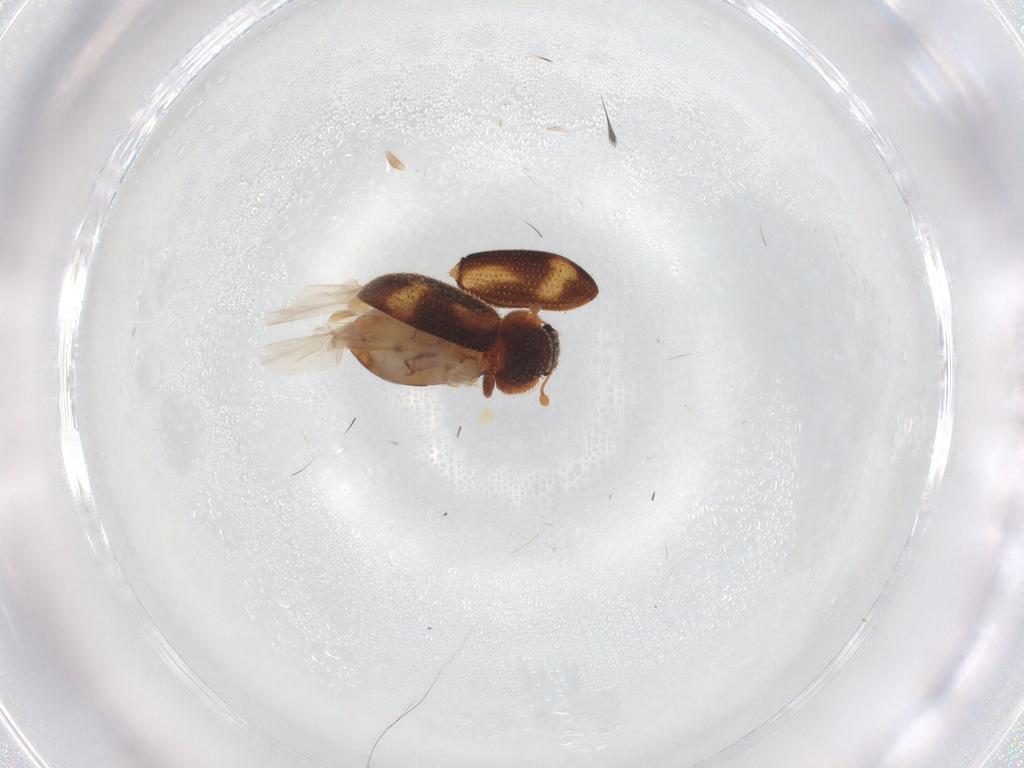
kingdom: Animalia
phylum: Arthropoda
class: Insecta
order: Coleoptera
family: Zopheridae
